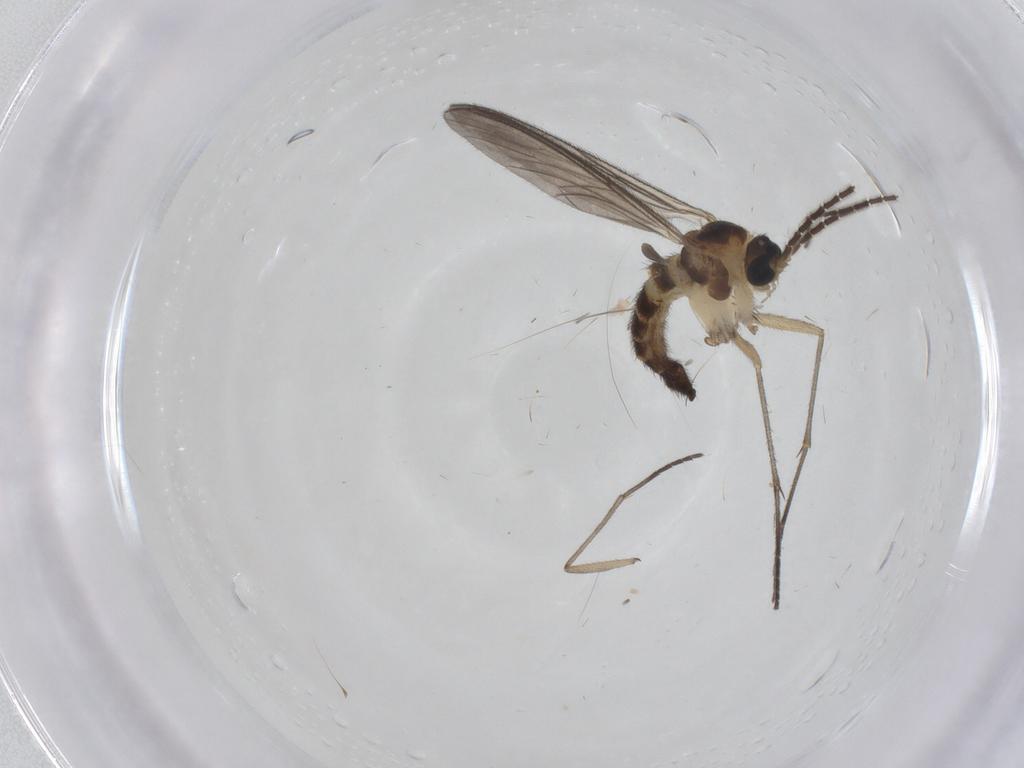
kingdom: Animalia
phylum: Arthropoda
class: Insecta
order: Diptera
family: Sciaridae
